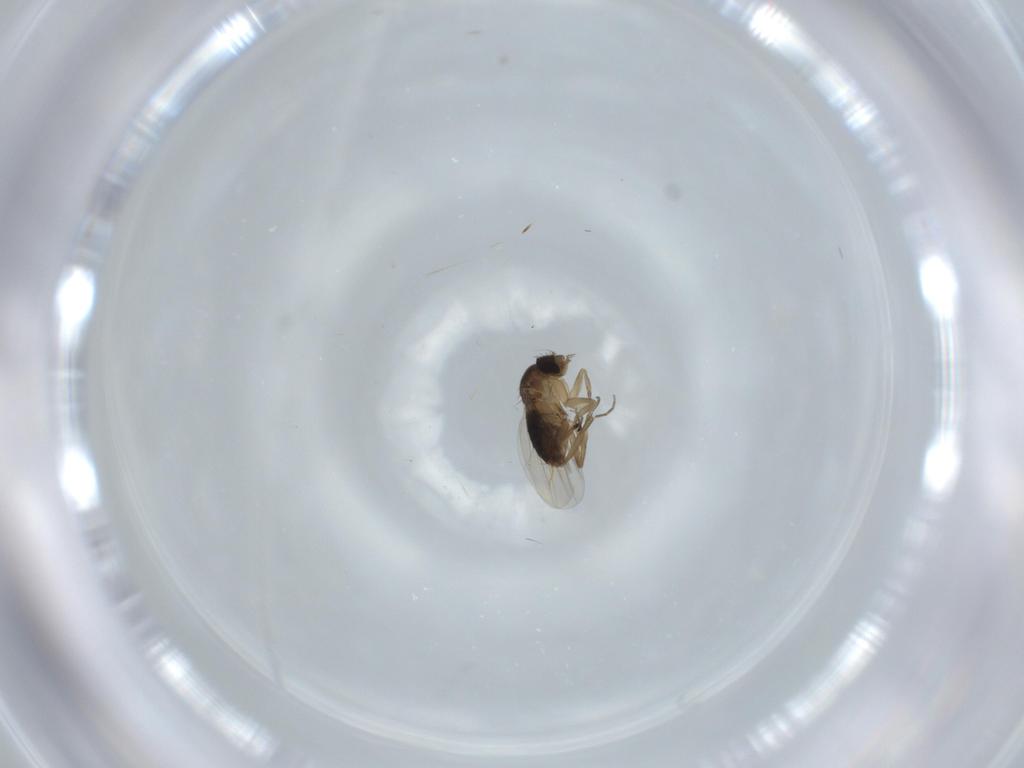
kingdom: Animalia
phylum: Arthropoda
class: Insecta
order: Diptera
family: Phoridae
